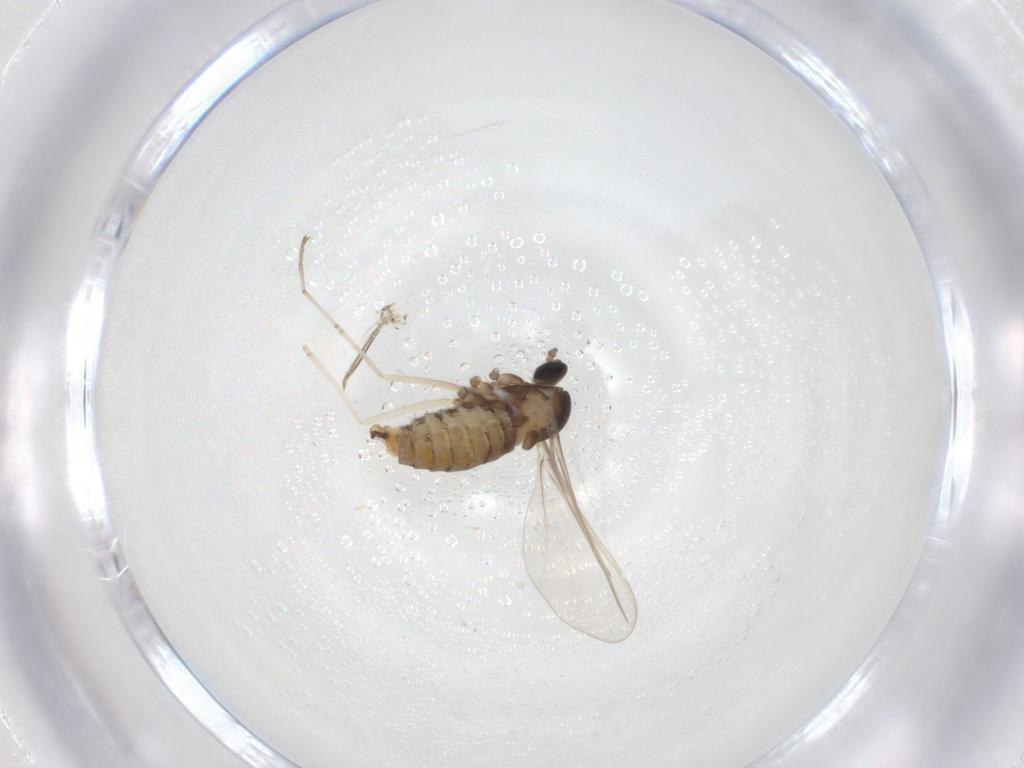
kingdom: Animalia
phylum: Arthropoda
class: Insecta
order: Diptera
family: Cecidomyiidae
